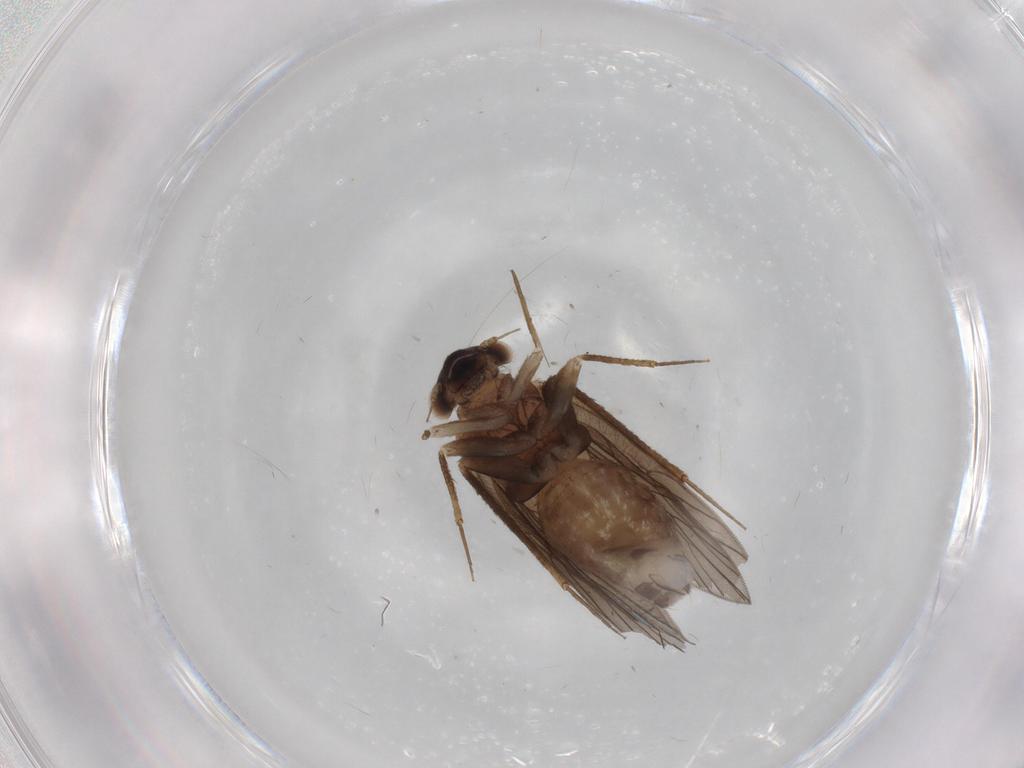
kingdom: Animalia
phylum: Arthropoda
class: Insecta
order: Psocodea
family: Lepidopsocidae
